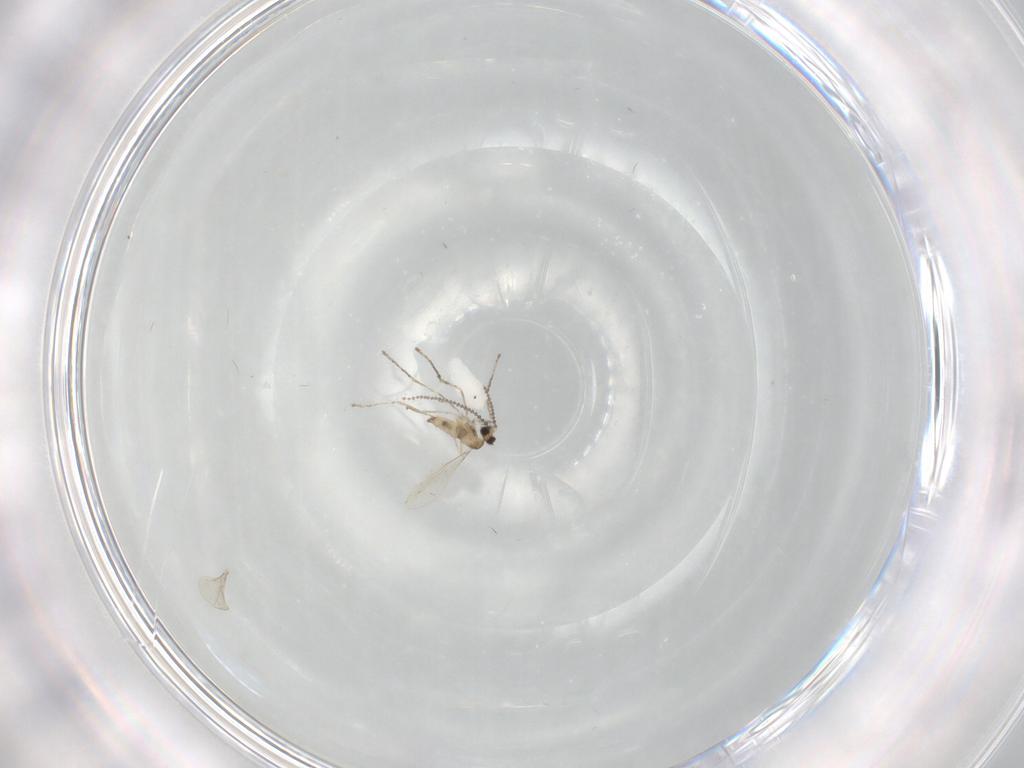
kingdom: Animalia
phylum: Arthropoda
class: Insecta
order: Diptera
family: Cecidomyiidae
